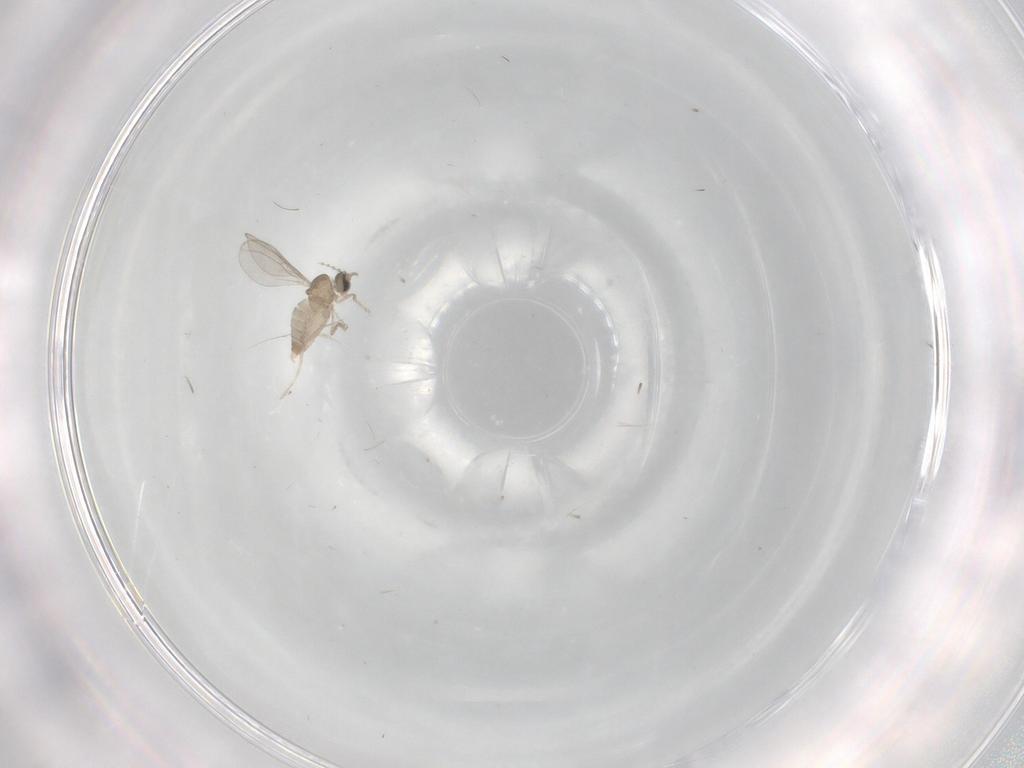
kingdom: Animalia
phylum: Arthropoda
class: Insecta
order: Diptera
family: Cecidomyiidae
